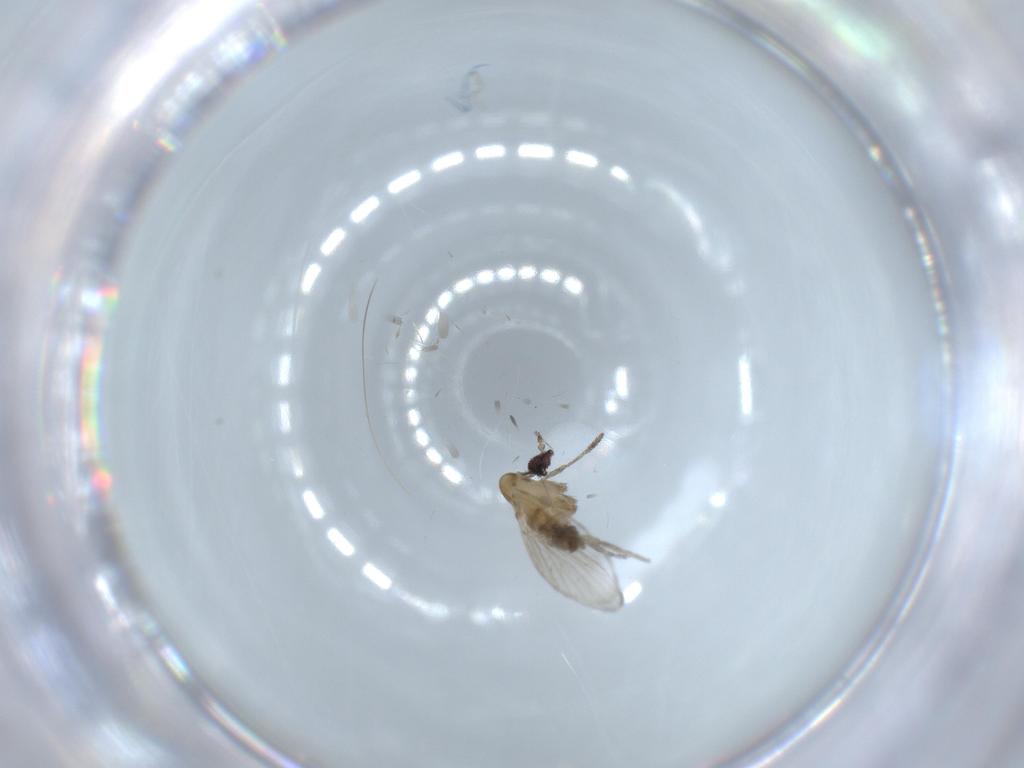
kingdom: Animalia
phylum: Arthropoda
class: Insecta
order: Diptera
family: Psychodidae
